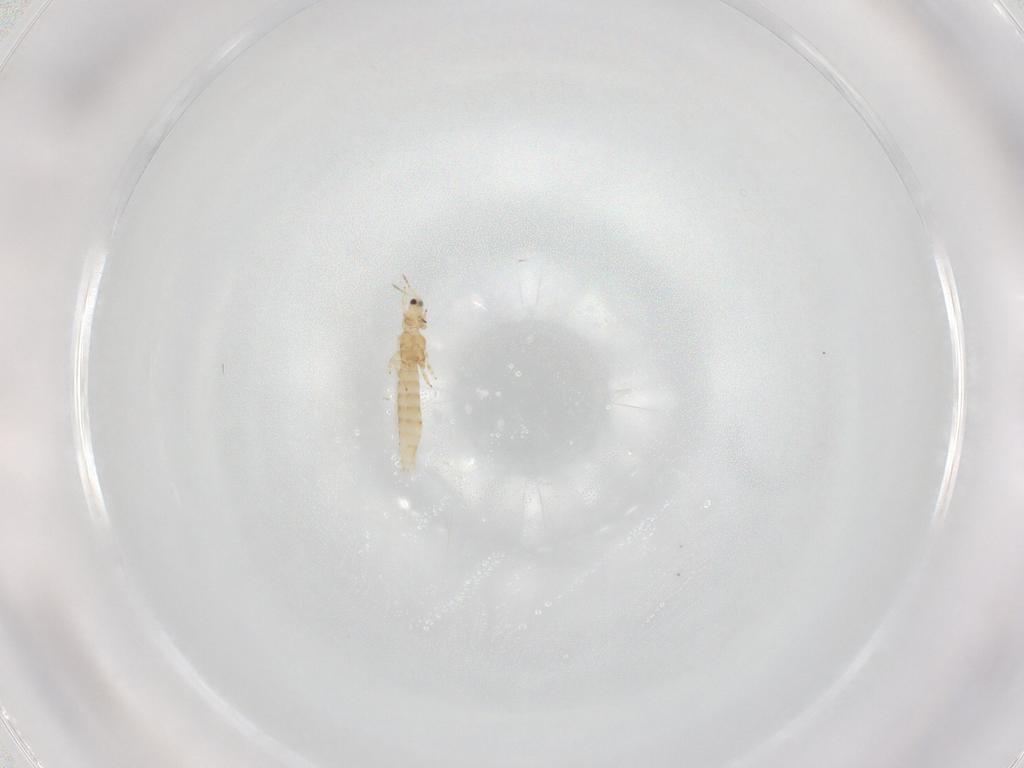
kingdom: Animalia
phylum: Arthropoda
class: Insecta
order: Thysanoptera
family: Thripidae
